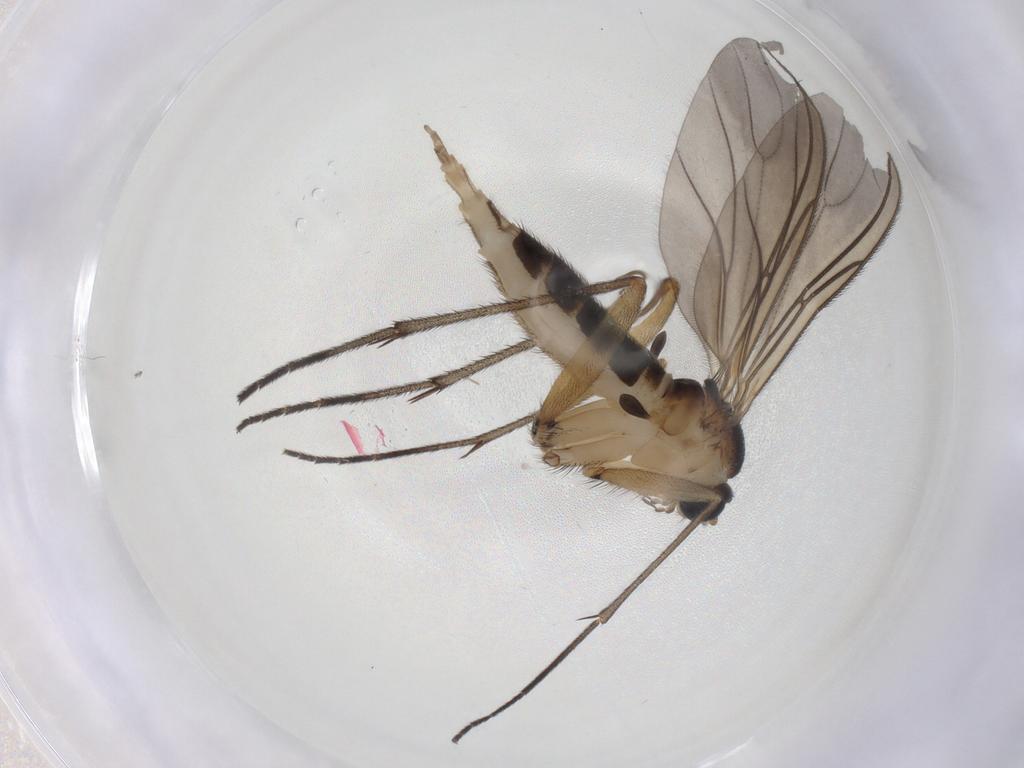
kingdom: Animalia
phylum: Arthropoda
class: Insecta
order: Diptera
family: Sciaridae
